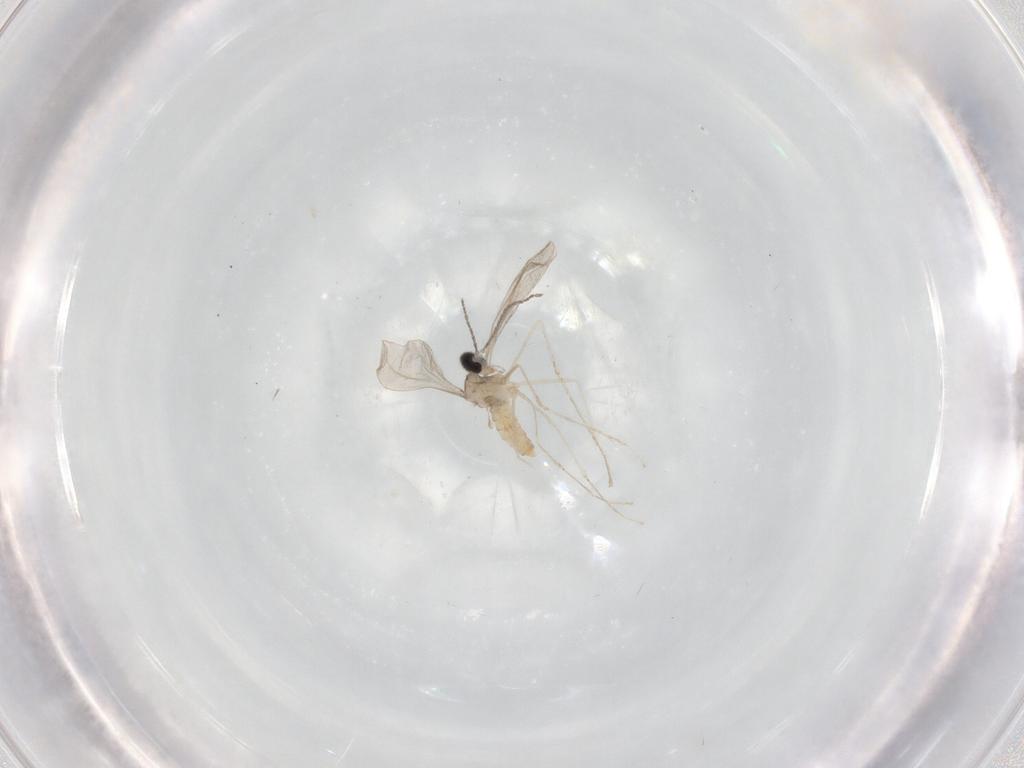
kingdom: Animalia
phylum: Arthropoda
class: Insecta
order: Diptera
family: Cecidomyiidae
